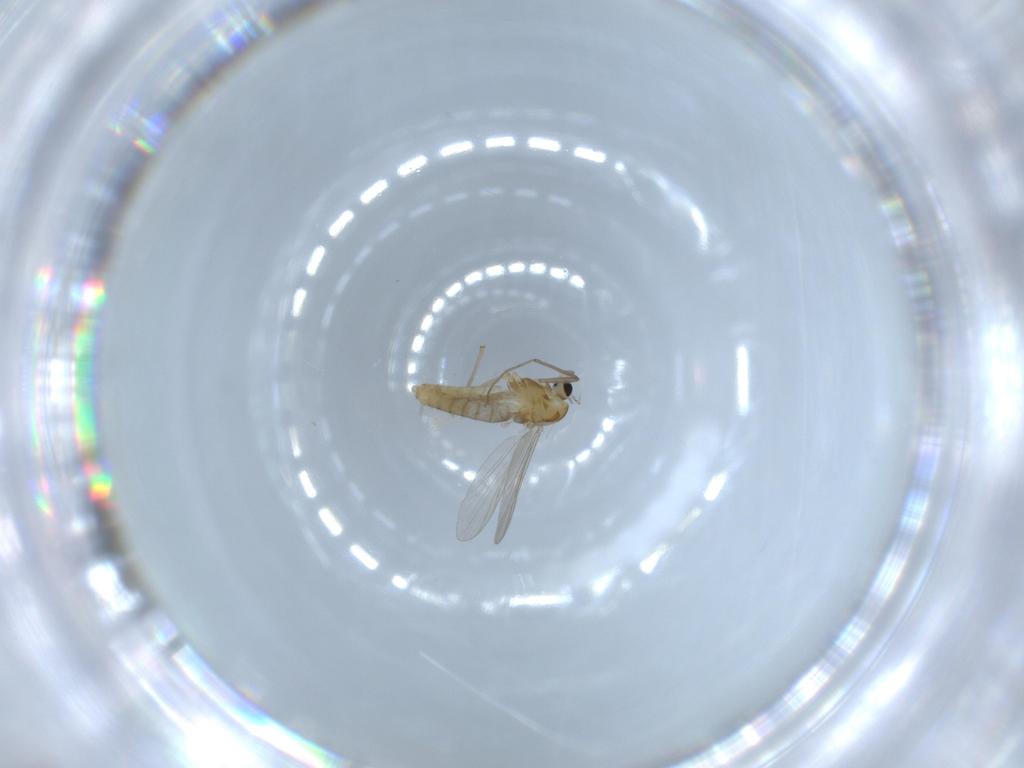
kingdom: Animalia
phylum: Arthropoda
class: Insecta
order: Diptera
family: Chironomidae
